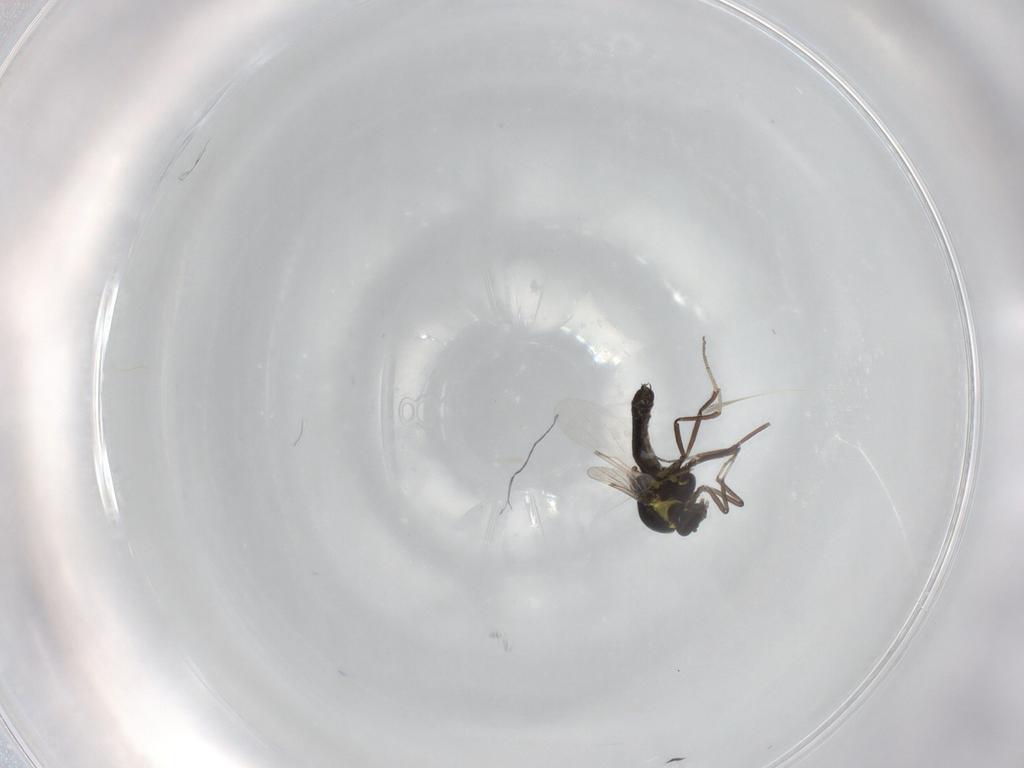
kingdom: Animalia
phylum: Arthropoda
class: Insecta
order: Diptera
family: Ceratopogonidae
